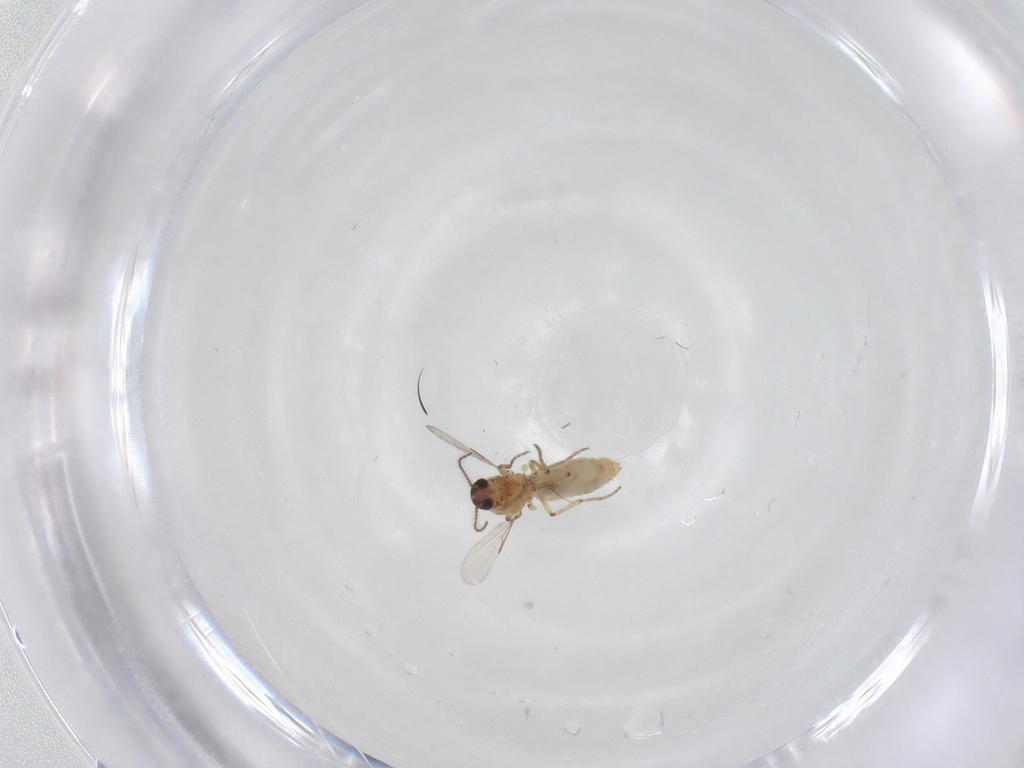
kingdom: Animalia
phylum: Arthropoda
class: Insecta
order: Diptera
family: Ceratopogonidae
